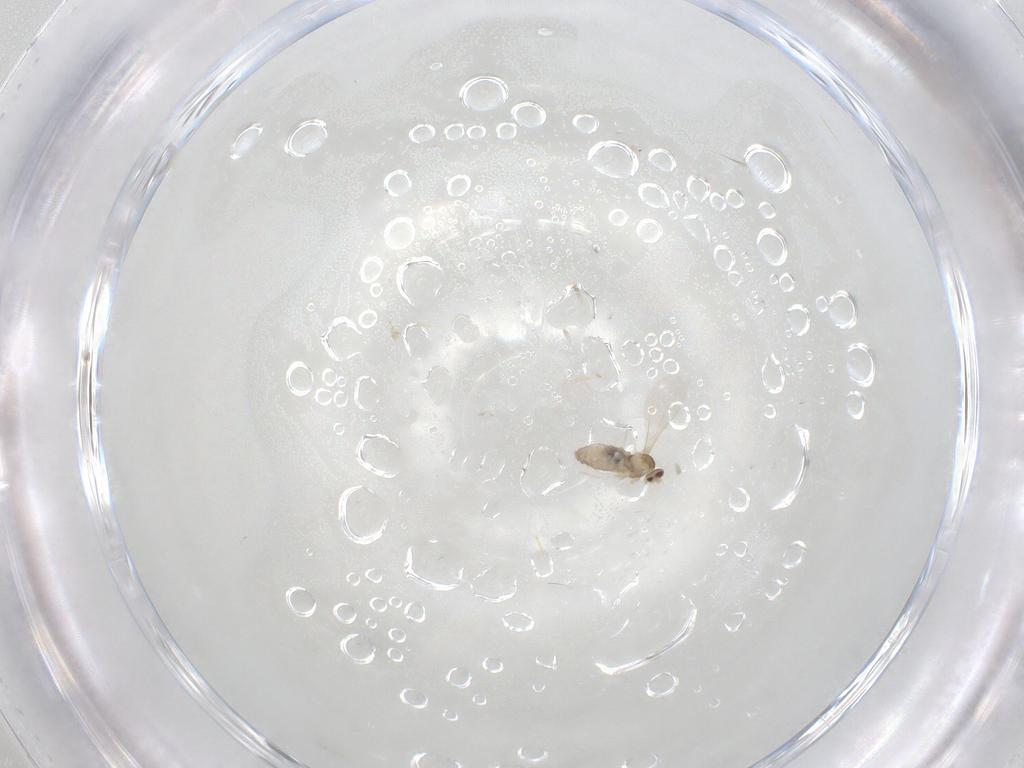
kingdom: Animalia
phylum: Arthropoda
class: Insecta
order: Diptera
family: Cecidomyiidae
